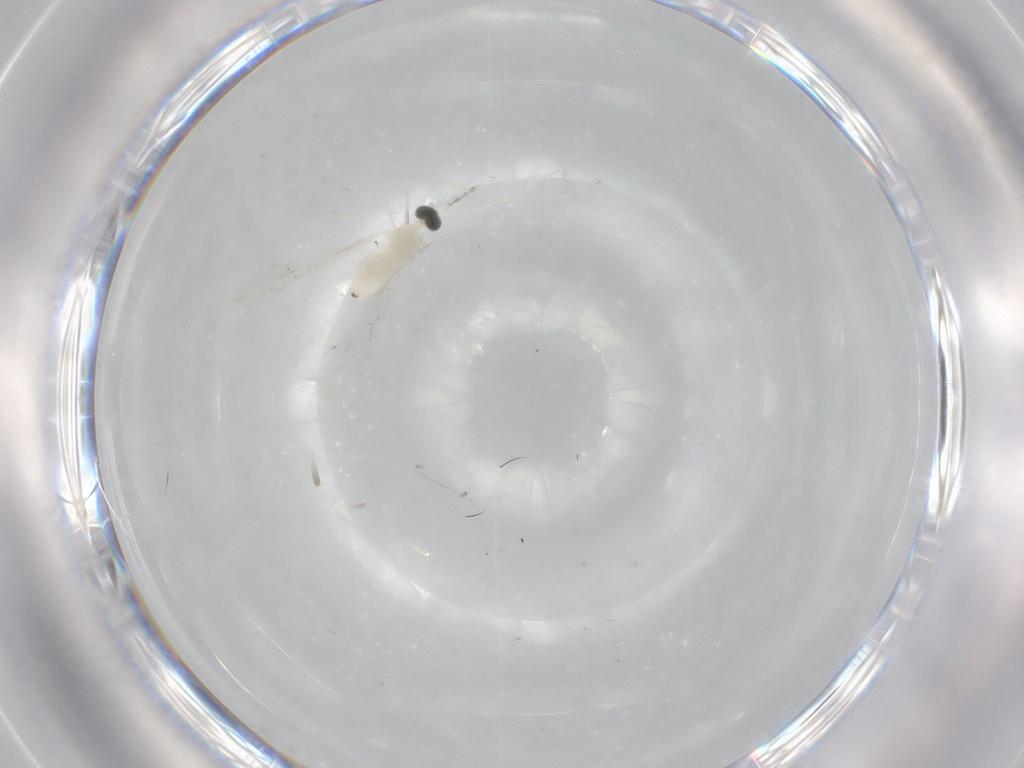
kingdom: Animalia
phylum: Arthropoda
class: Insecta
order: Diptera
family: Cecidomyiidae
